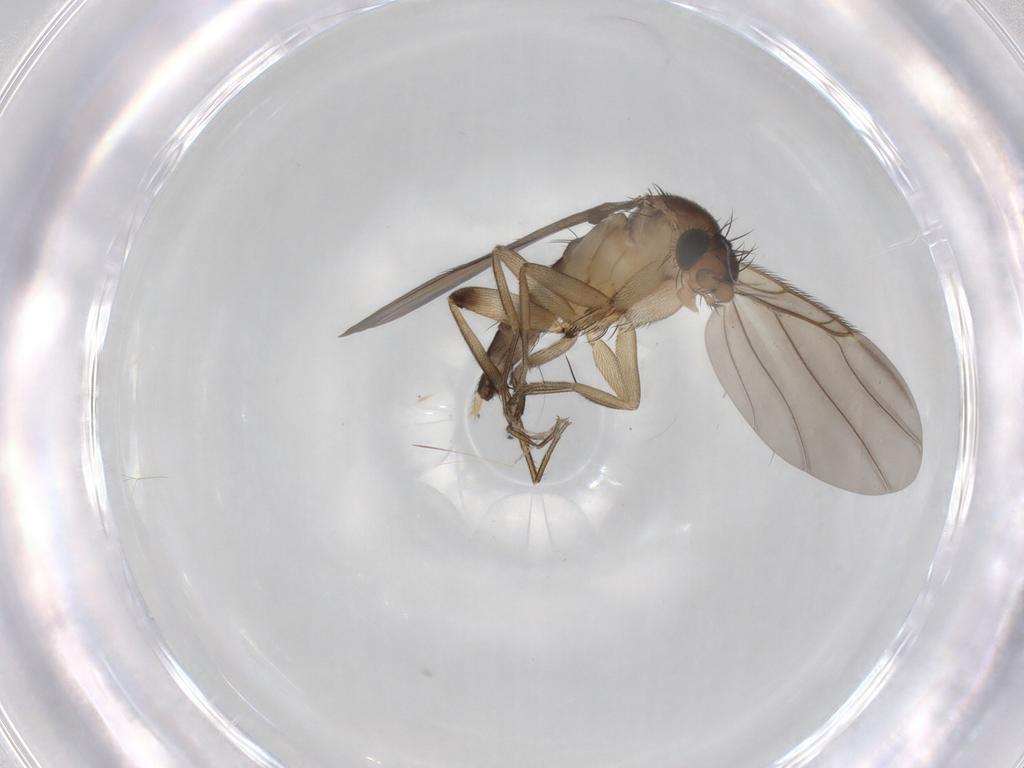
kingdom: Animalia
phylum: Arthropoda
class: Insecta
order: Diptera
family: Phoridae
